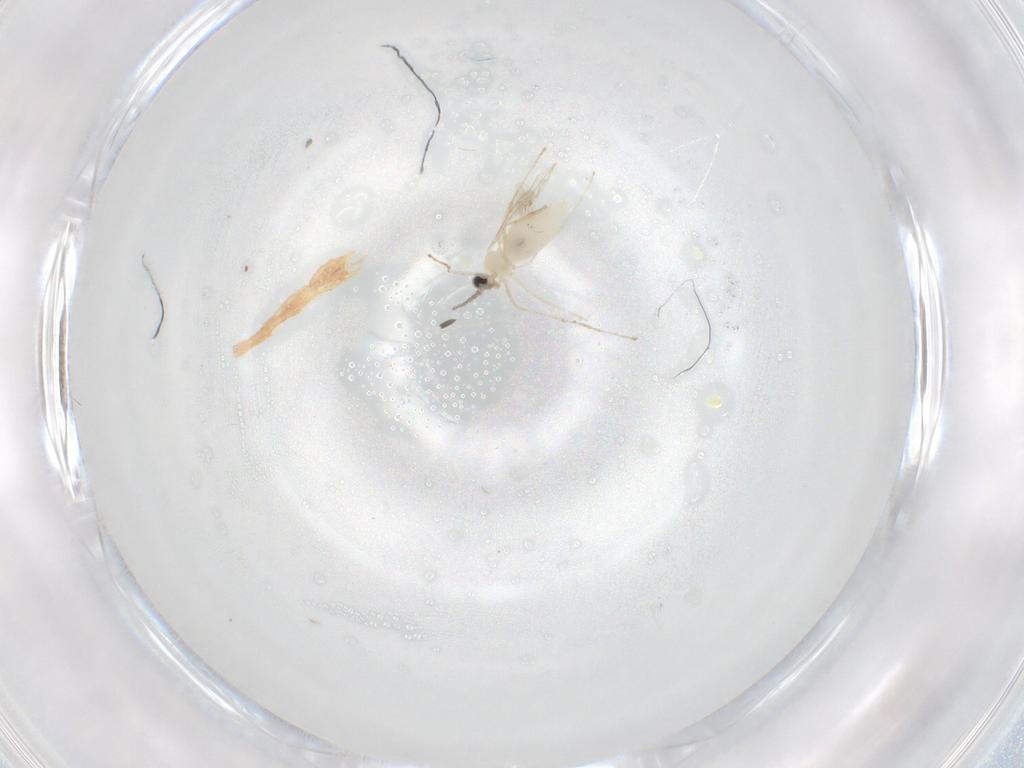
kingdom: Animalia
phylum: Arthropoda
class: Insecta
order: Diptera
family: Cecidomyiidae
